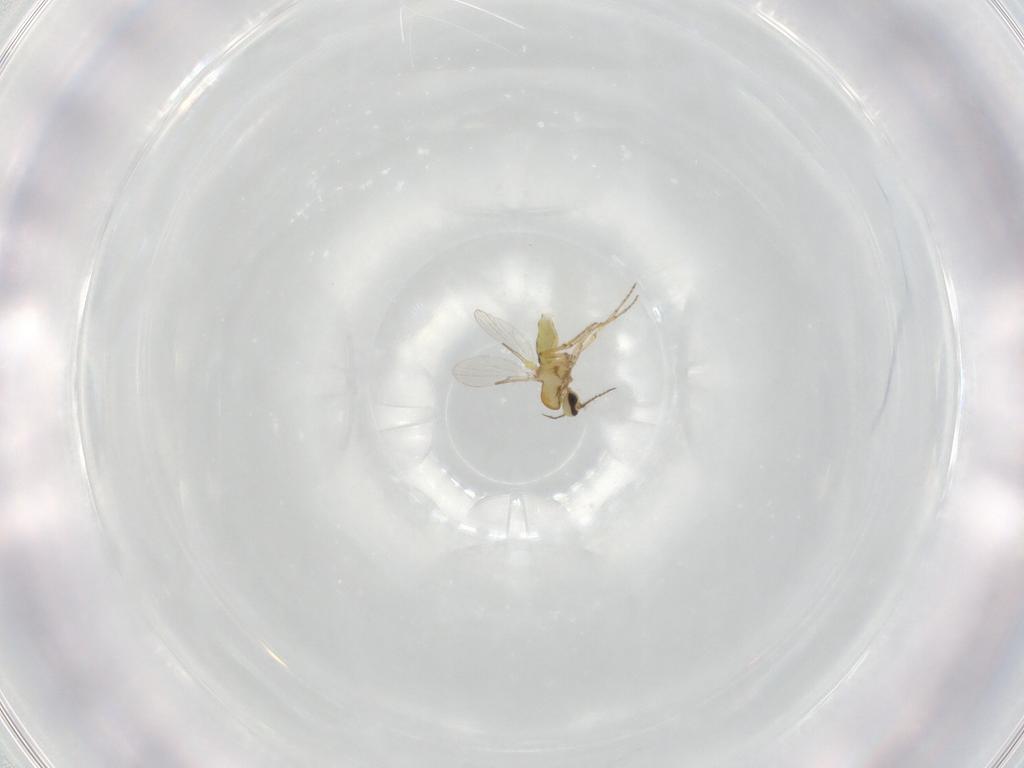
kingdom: Animalia
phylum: Arthropoda
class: Insecta
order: Diptera
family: Ceratopogonidae
